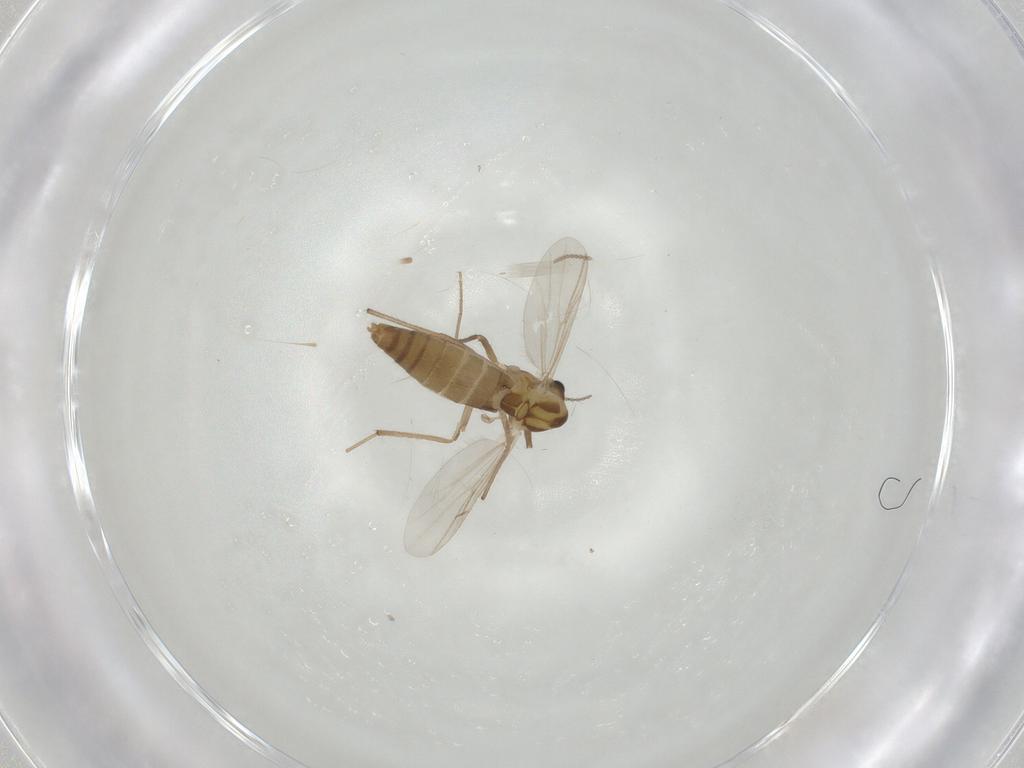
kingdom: Animalia
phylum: Arthropoda
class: Insecta
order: Diptera
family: Chironomidae
